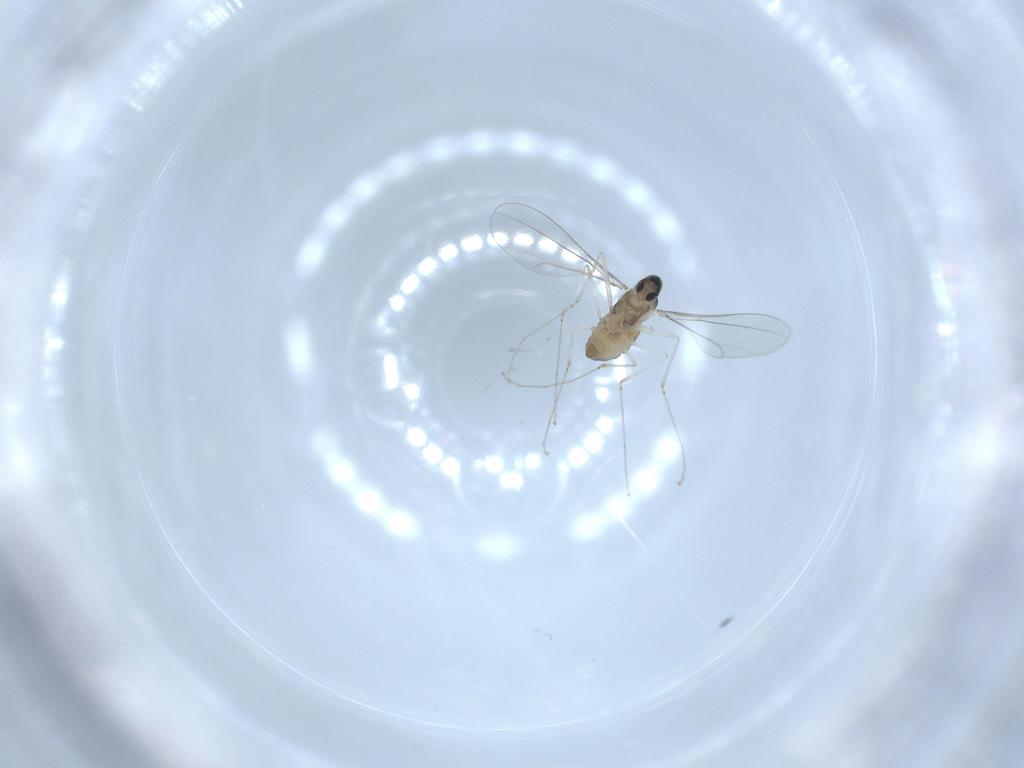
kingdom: Animalia
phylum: Arthropoda
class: Insecta
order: Diptera
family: Cecidomyiidae
